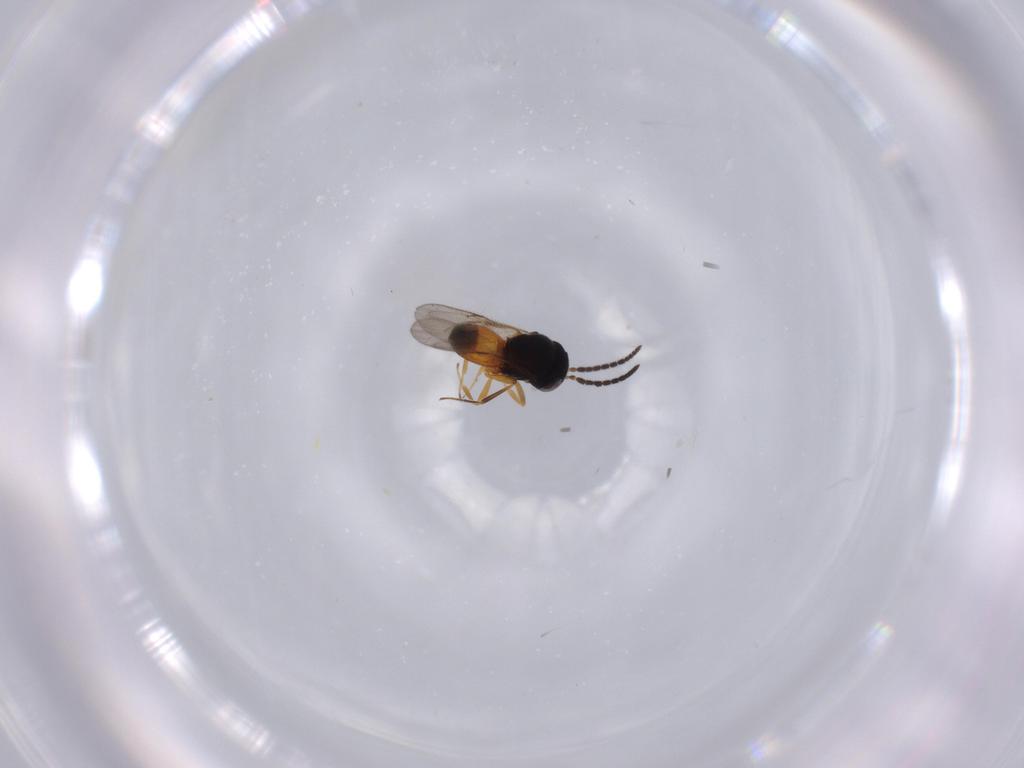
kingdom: Animalia
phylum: Arthropoda
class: Insecta
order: Hymenoptera
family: Scelionidae
